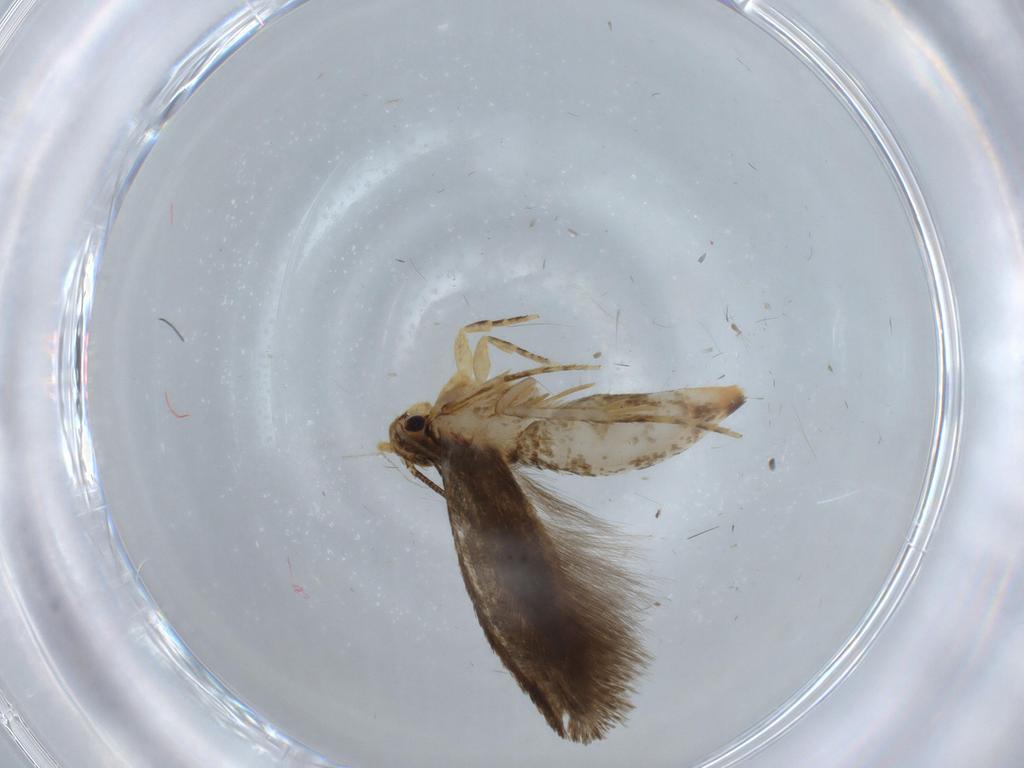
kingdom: Animalia
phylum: Arthropoda
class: Insecta
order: Lepidoptera
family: Tineidae
